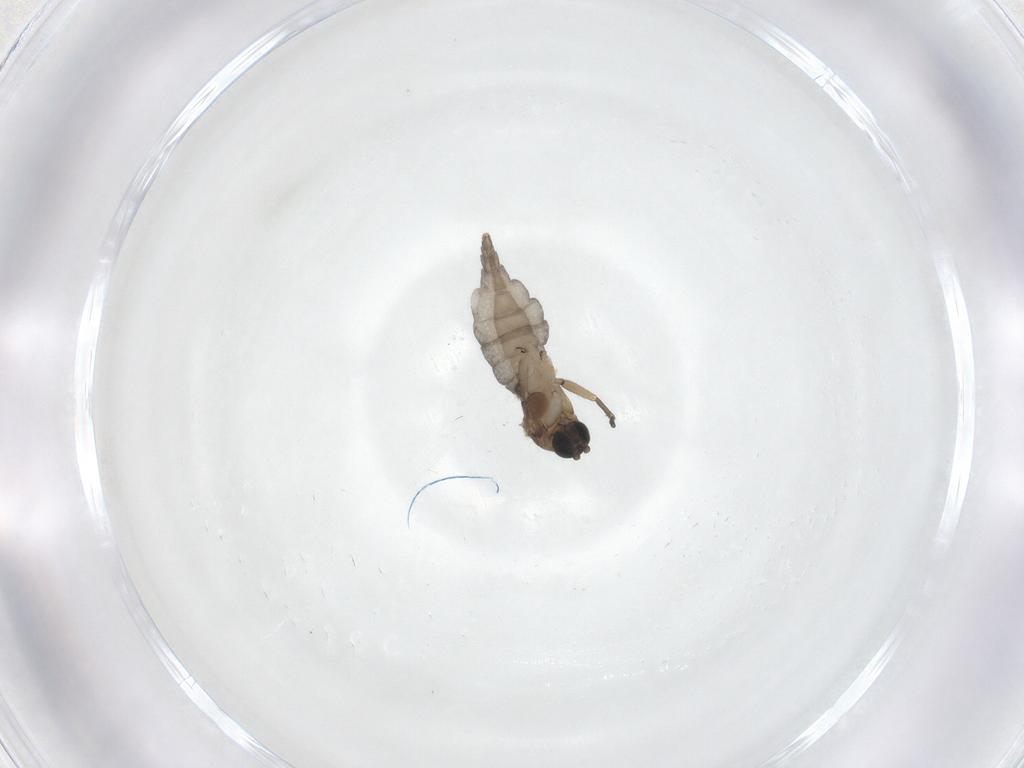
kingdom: Animalia
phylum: Arthropoda
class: Insecta
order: Diptera
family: Sciaridae
